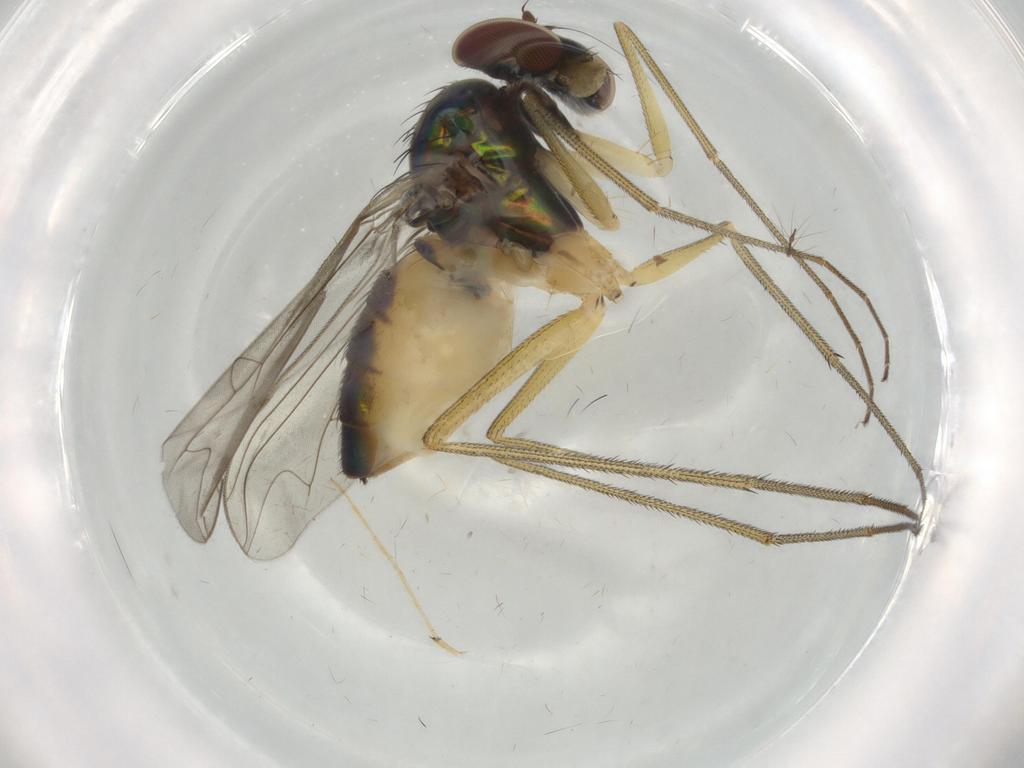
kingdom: Animalia
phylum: Arthropoda
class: Insecta
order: Diptera
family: Dolichopodidae
